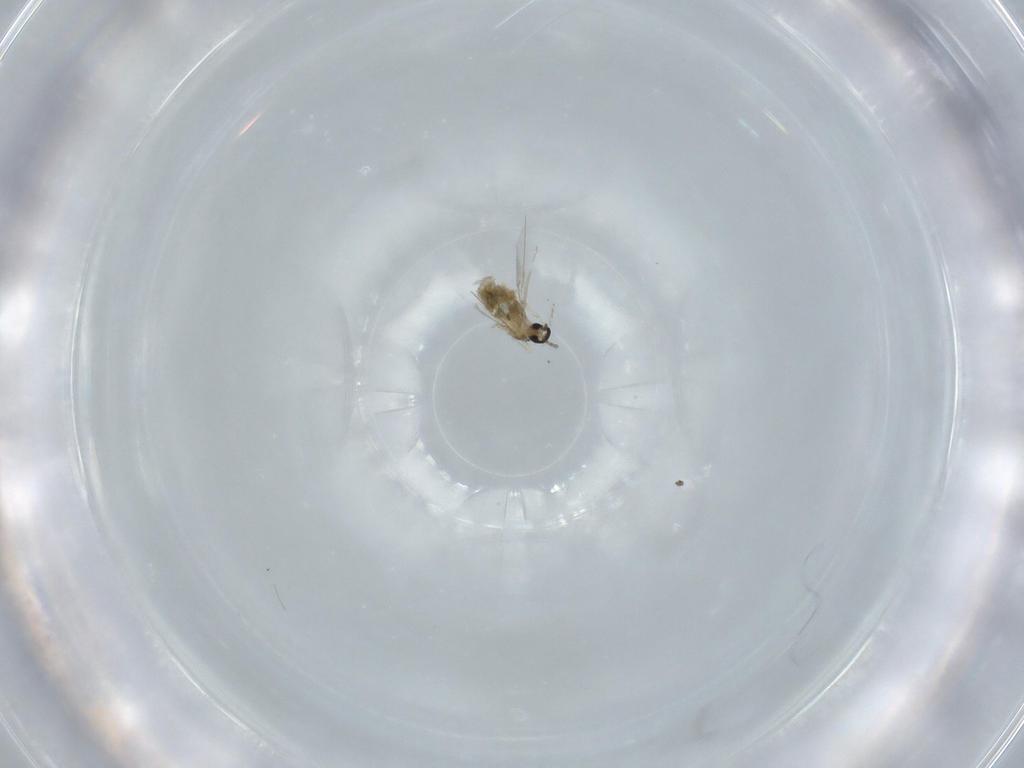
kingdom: Animalia
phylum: Arthropoda
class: Insecta
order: Diptera
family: Cecidomyiidae
